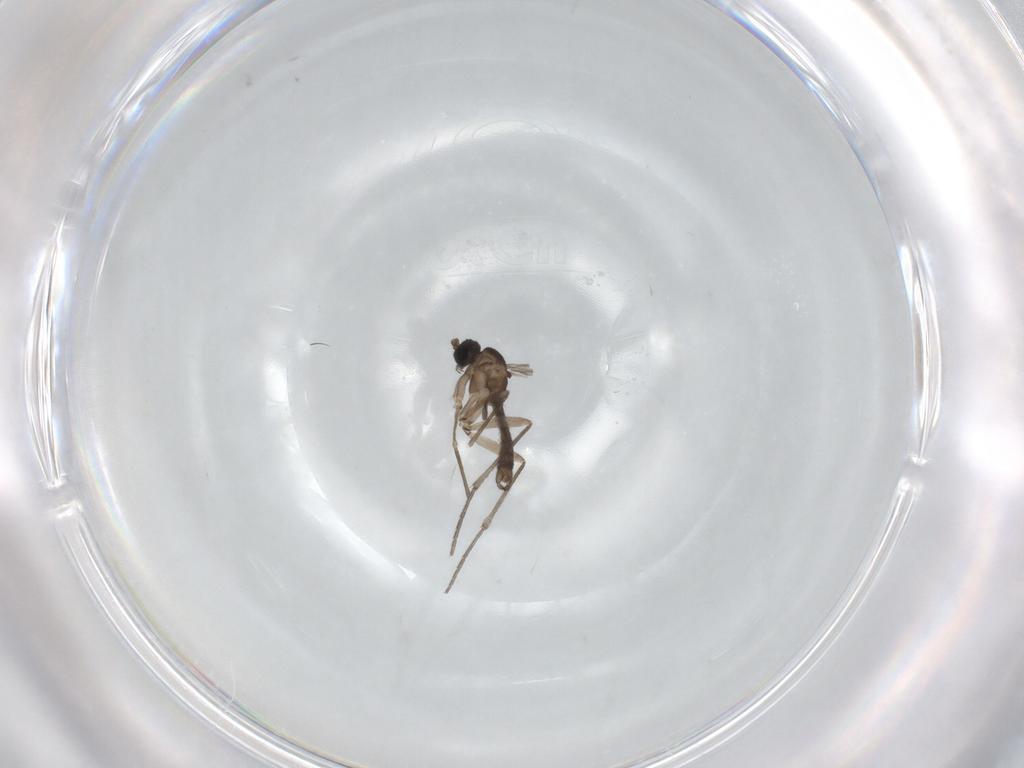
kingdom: Animalia
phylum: Arthropoda
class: Insecta
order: Diptera
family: Sciaridae
